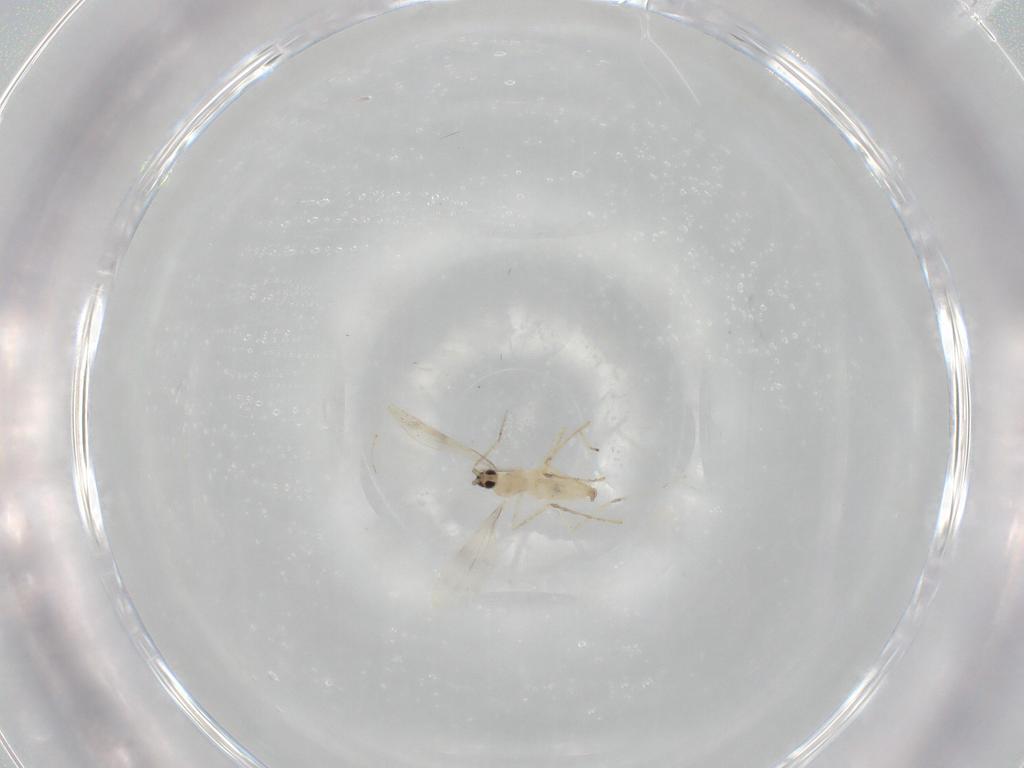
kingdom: Animalia
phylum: Arthropoda
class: Insecta
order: Diptera
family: Cecidomyiidae
